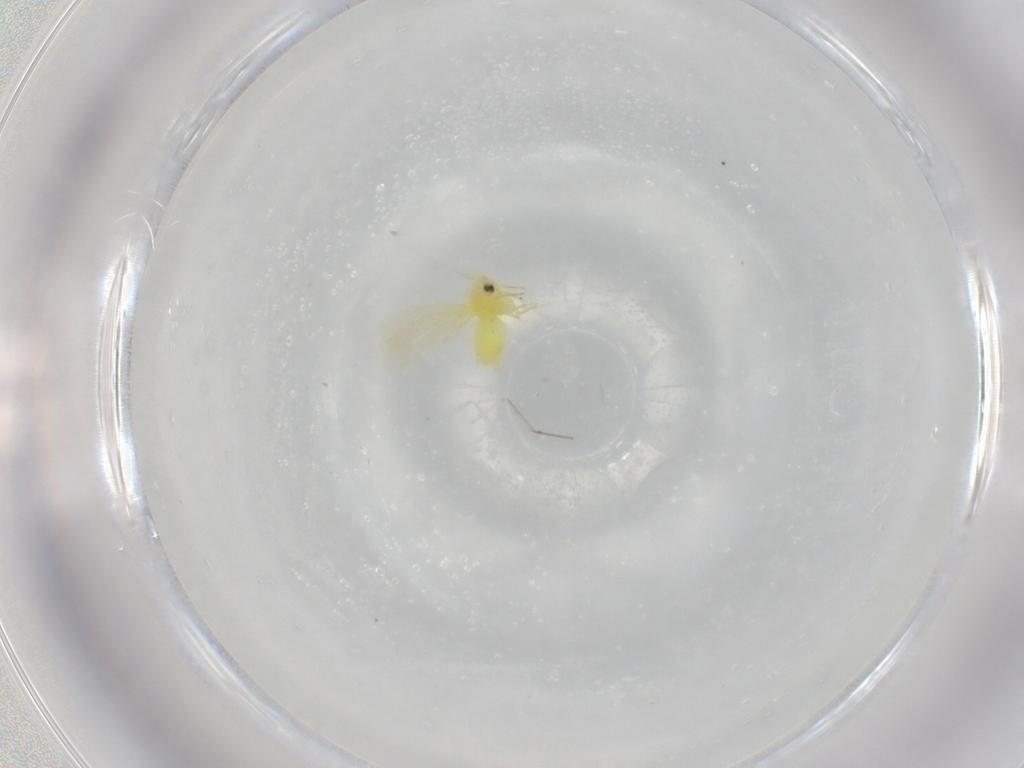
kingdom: Animalia
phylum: Arthropoda
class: Insecta
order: Hemiptera
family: Aleyrodidae
